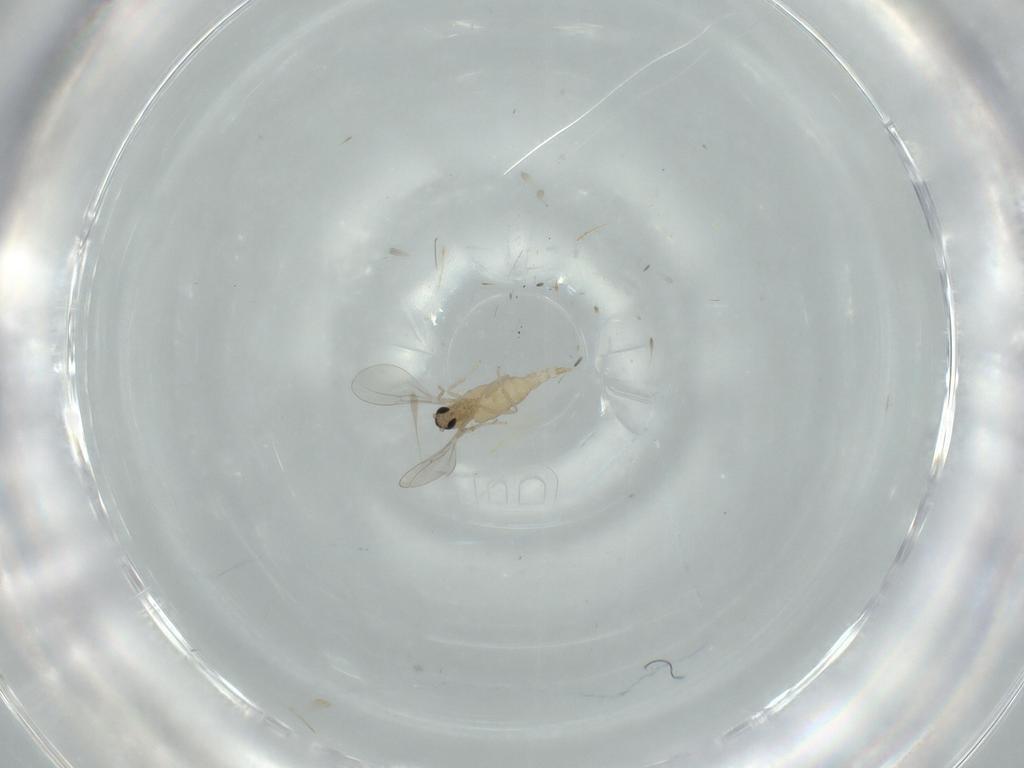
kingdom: Animalia
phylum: Arthropoda
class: Insecta
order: Diptera
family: Cecidomyiidae
